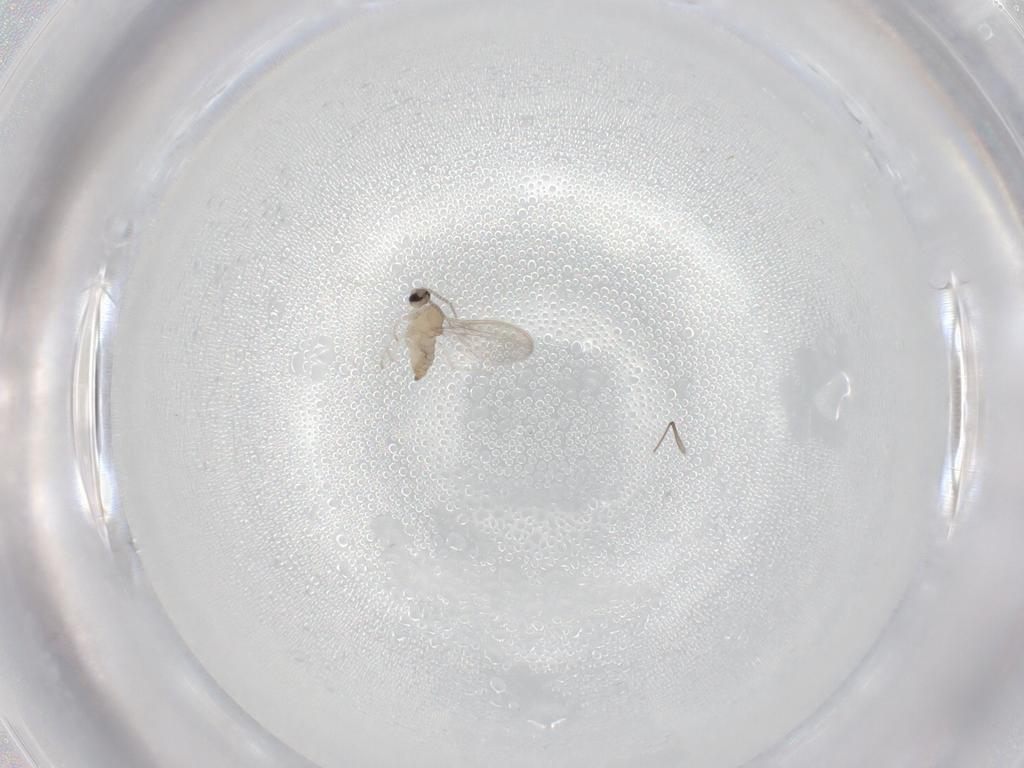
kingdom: Animalia
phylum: Arthropoda
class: Insecta
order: Diptera
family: Cecidomyiidae
